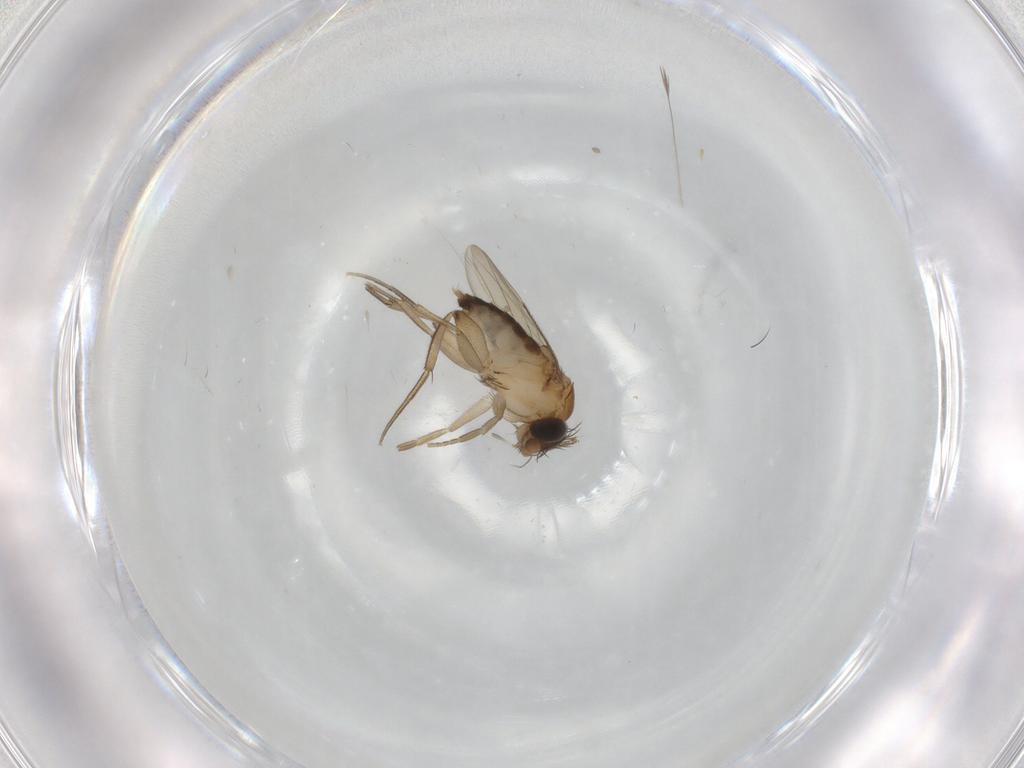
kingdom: Animalia
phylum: Arthropoda
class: Insecta
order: Diptera
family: Phoridae
